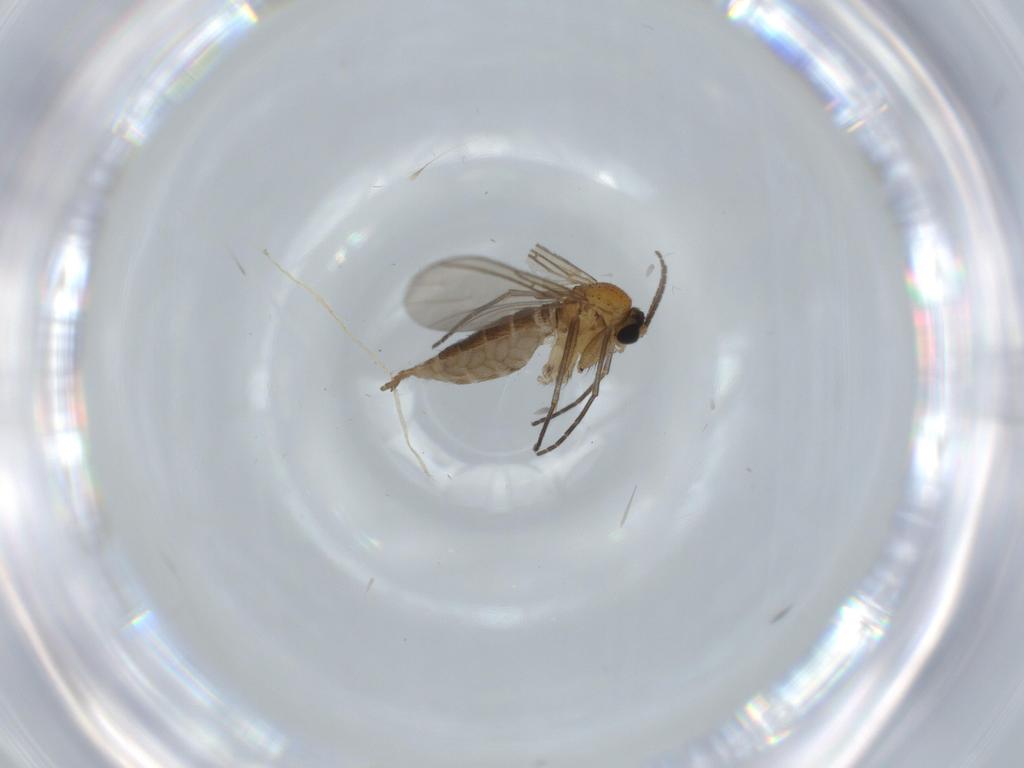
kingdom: Animalia
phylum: Arthropoda
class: Insecta
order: Diptera
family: Sciaridae
